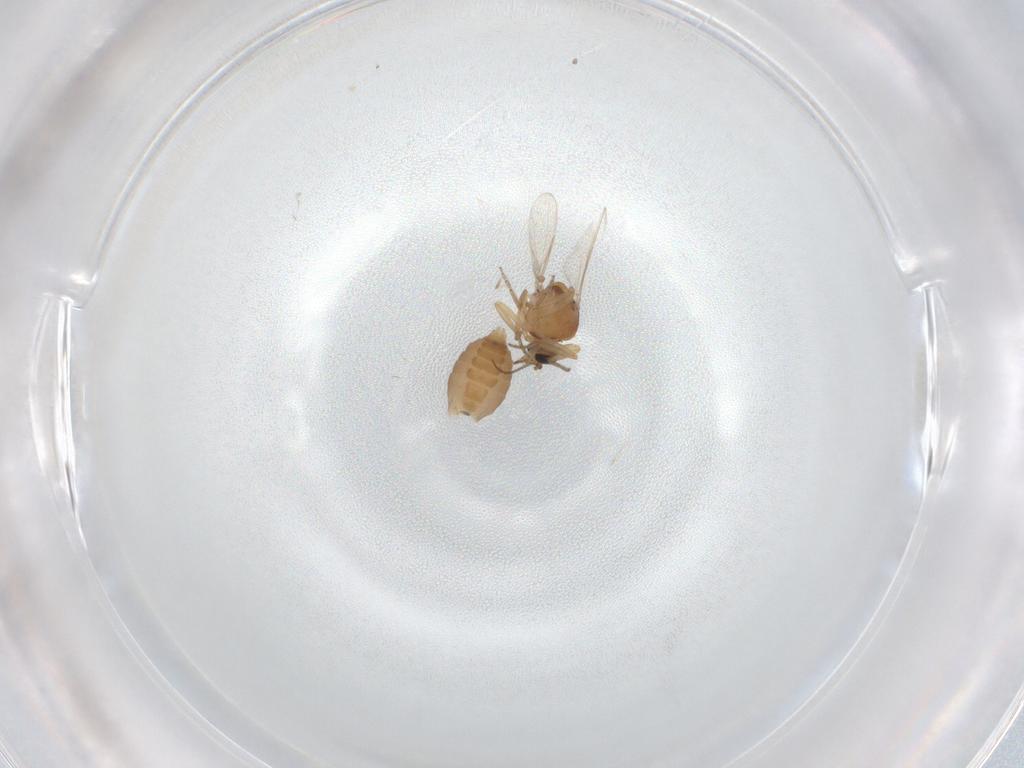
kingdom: Animalia
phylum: Arthropoda
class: Insecta
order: Diptera
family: Ceratopogonidae
